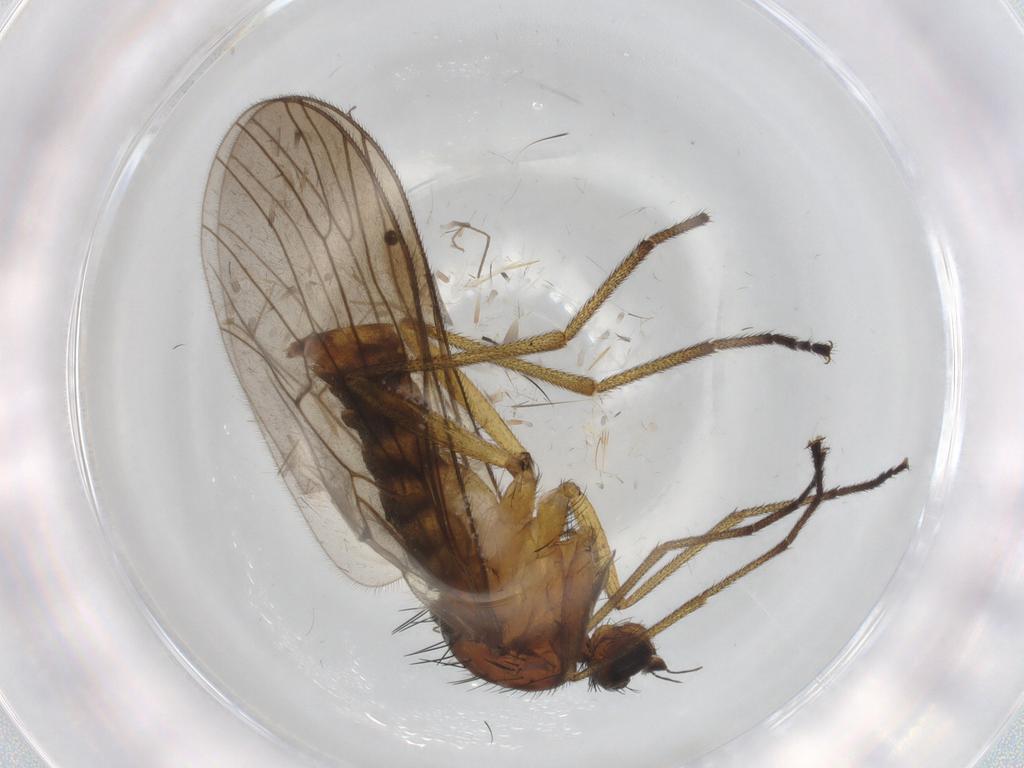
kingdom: Animalia
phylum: Arthropoda
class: Insecta
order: Diptera
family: Brachystomatidae
